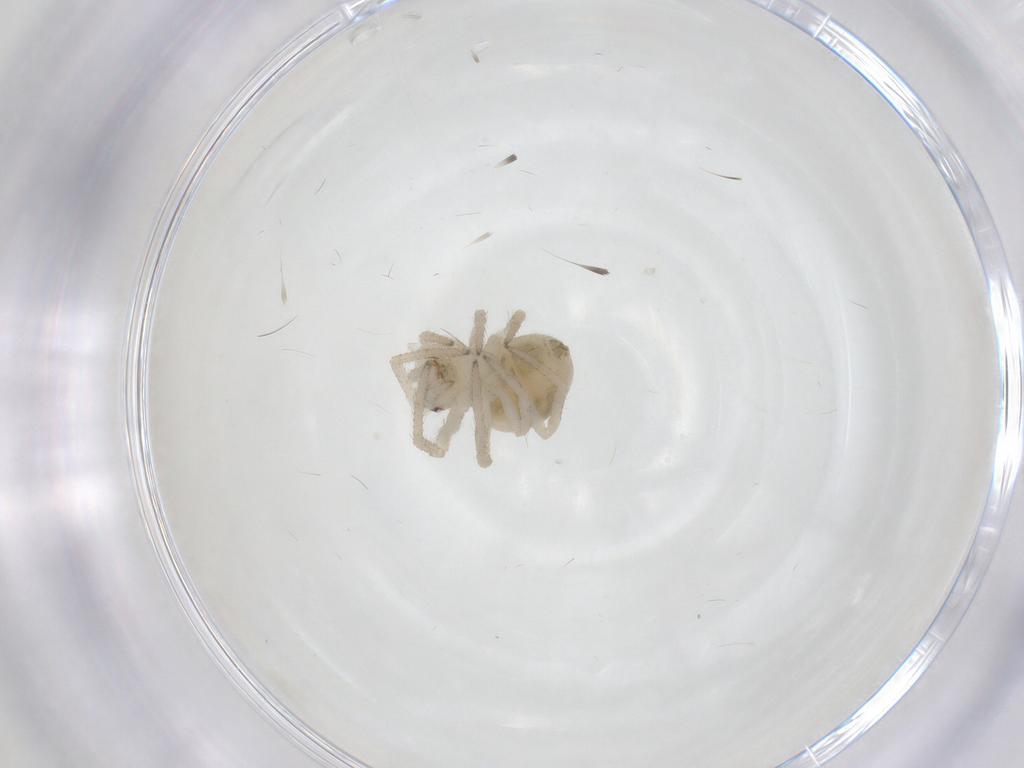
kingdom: Animalia
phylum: Arthropoda
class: Arachnida
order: Araneae
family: Theridiidae
